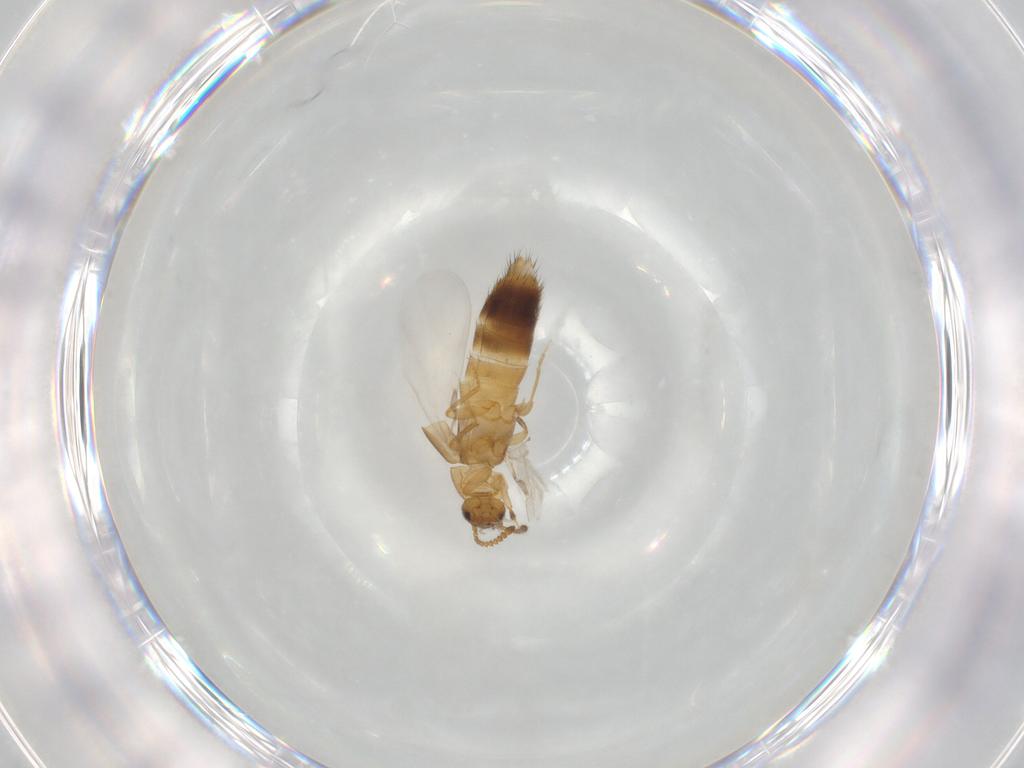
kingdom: Animalia
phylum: Arthropoda
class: Insecta
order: Coleoptera
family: Staphylinidae
